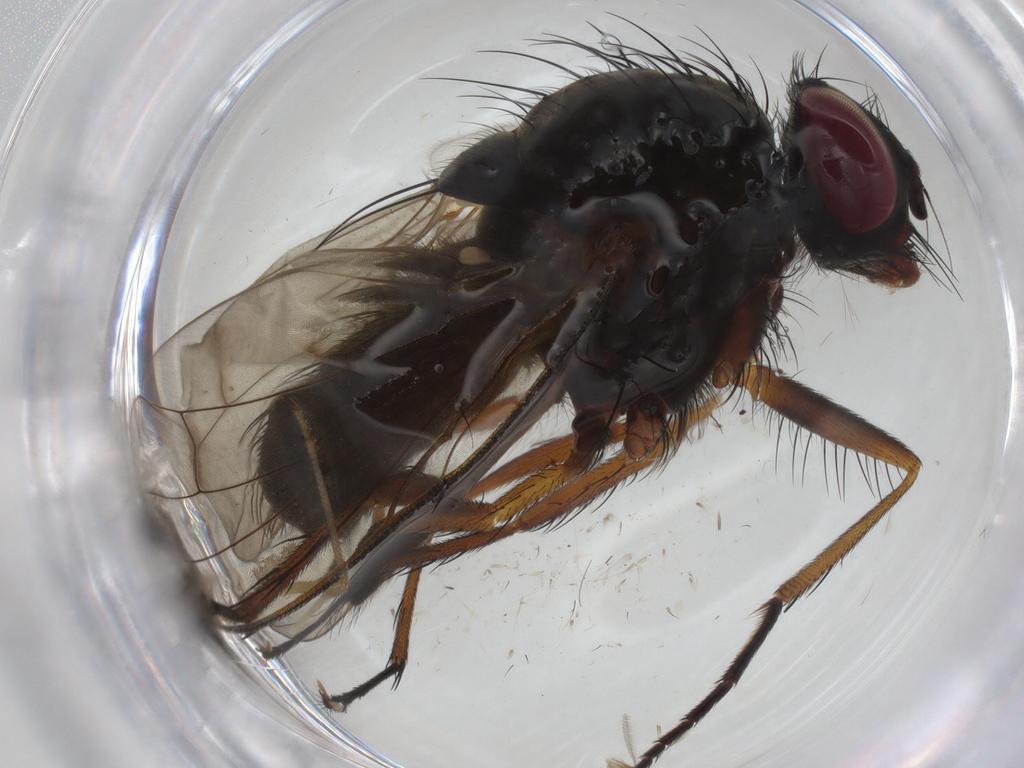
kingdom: Animalia
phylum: Arthropoda
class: Insecta
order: Diptera
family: Anthomyiidae
